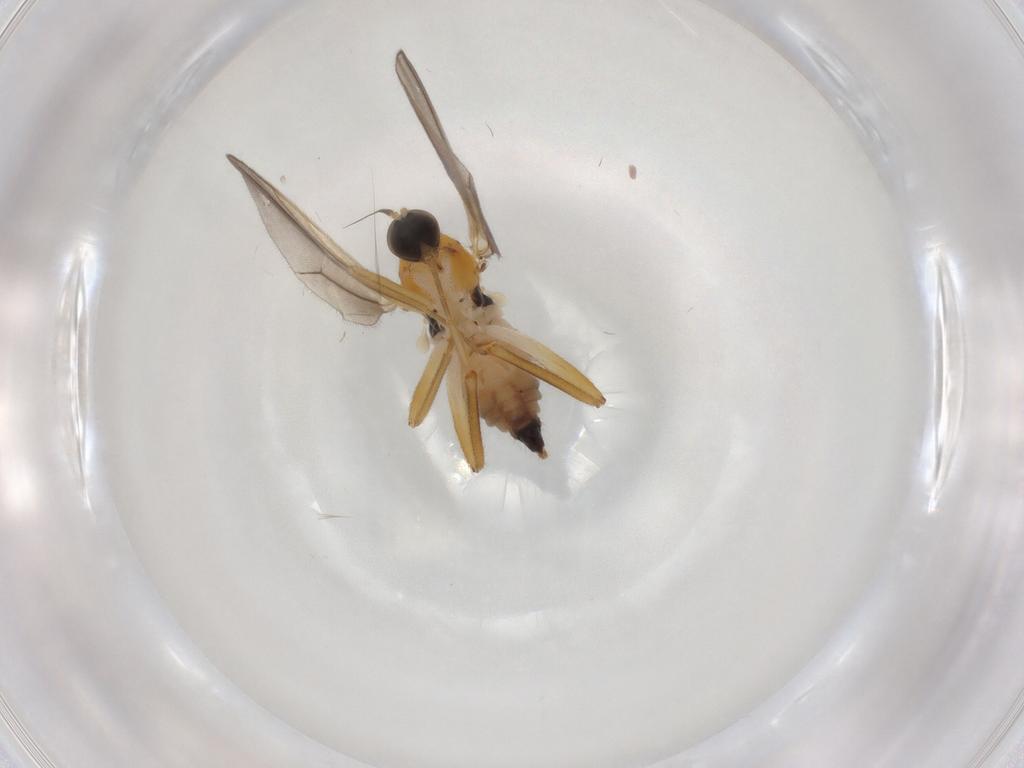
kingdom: Animalia
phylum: Arthropoda
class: Insecta
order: Diptera
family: Hybotidae
